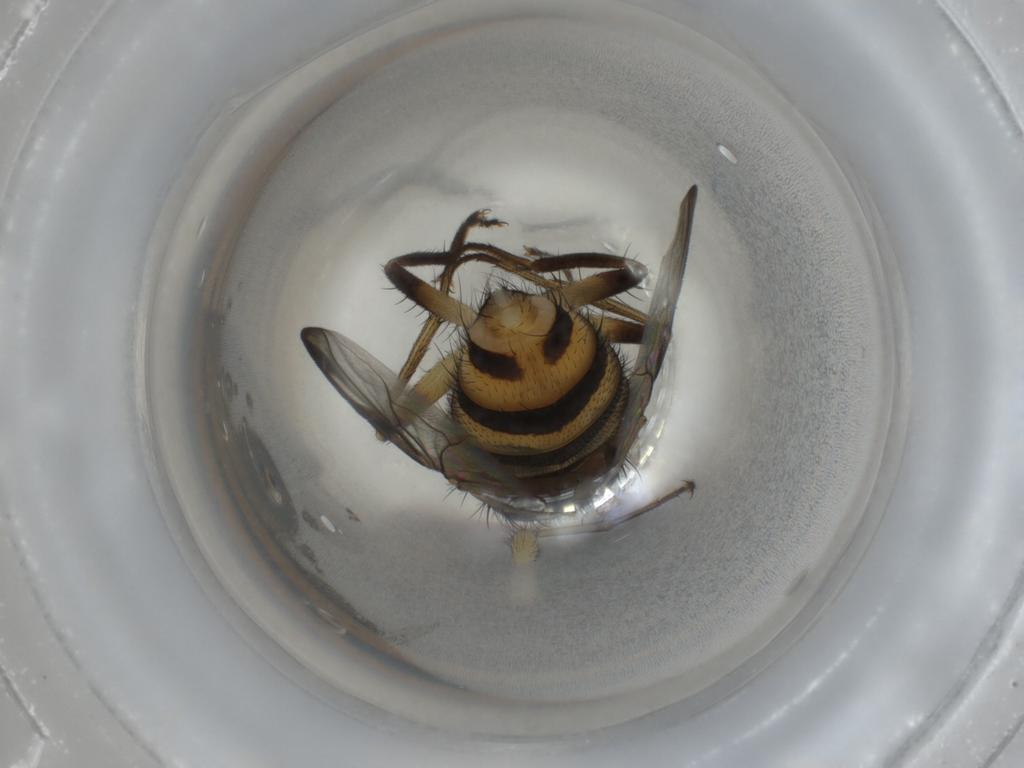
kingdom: Animalia
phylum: Arthropoda
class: Insecta
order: Diptera
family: Calliphoridae
